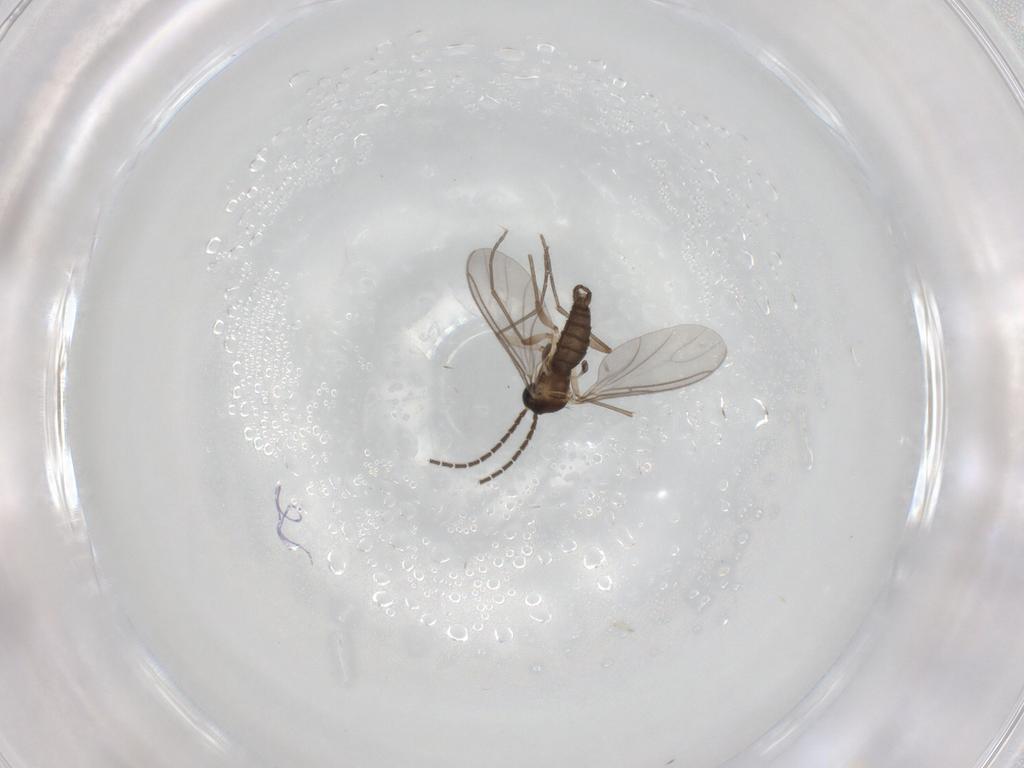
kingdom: Animalia
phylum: Arthropoda
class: Insecta
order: Diptera
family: Sciaridae
